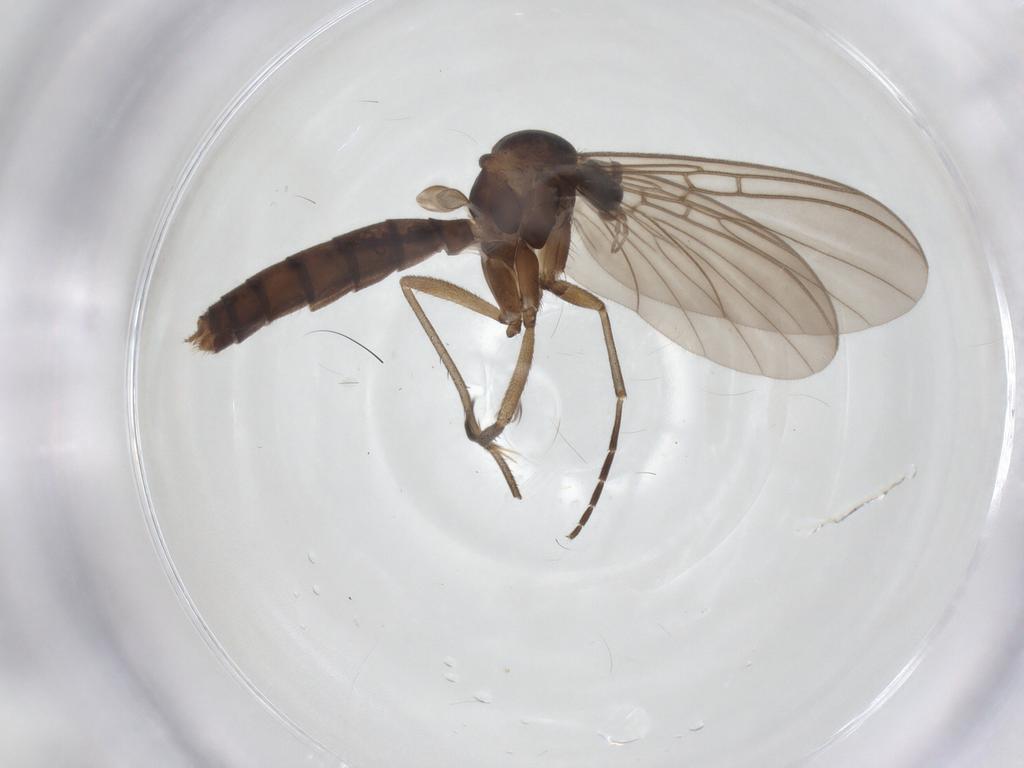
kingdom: Animalia
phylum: Arthropoda
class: Insecta
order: Diptera
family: Mycetophilidae
